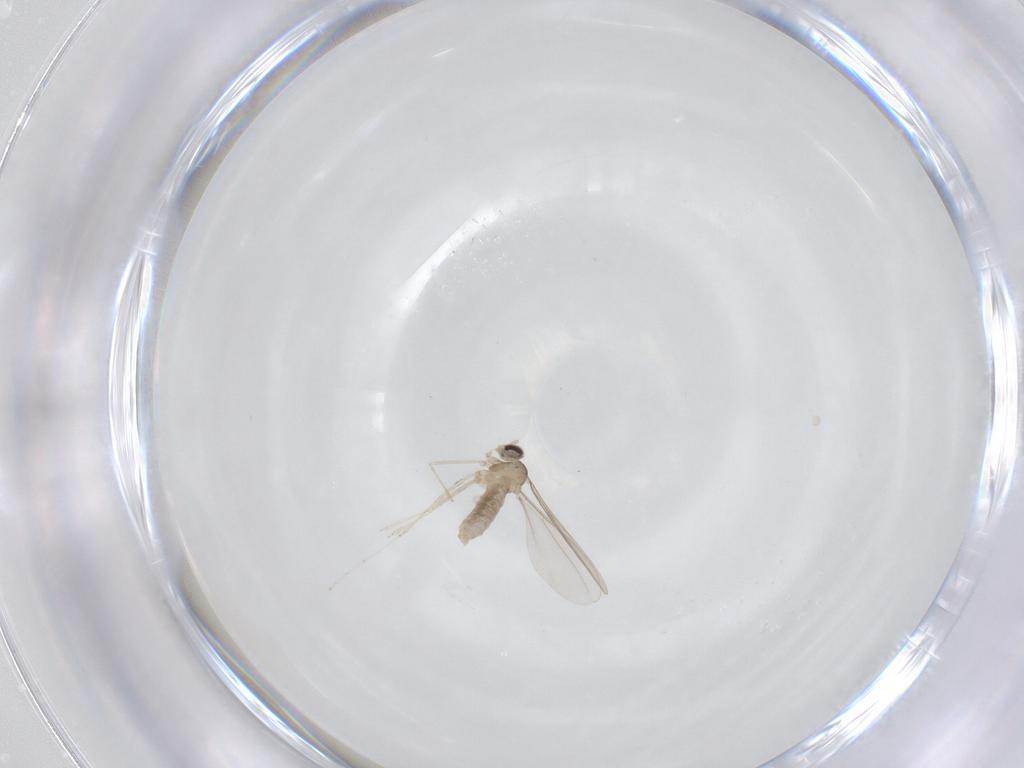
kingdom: Animalia
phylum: Arthropoda
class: Insecta
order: Diptera
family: Cecidomyiidae
